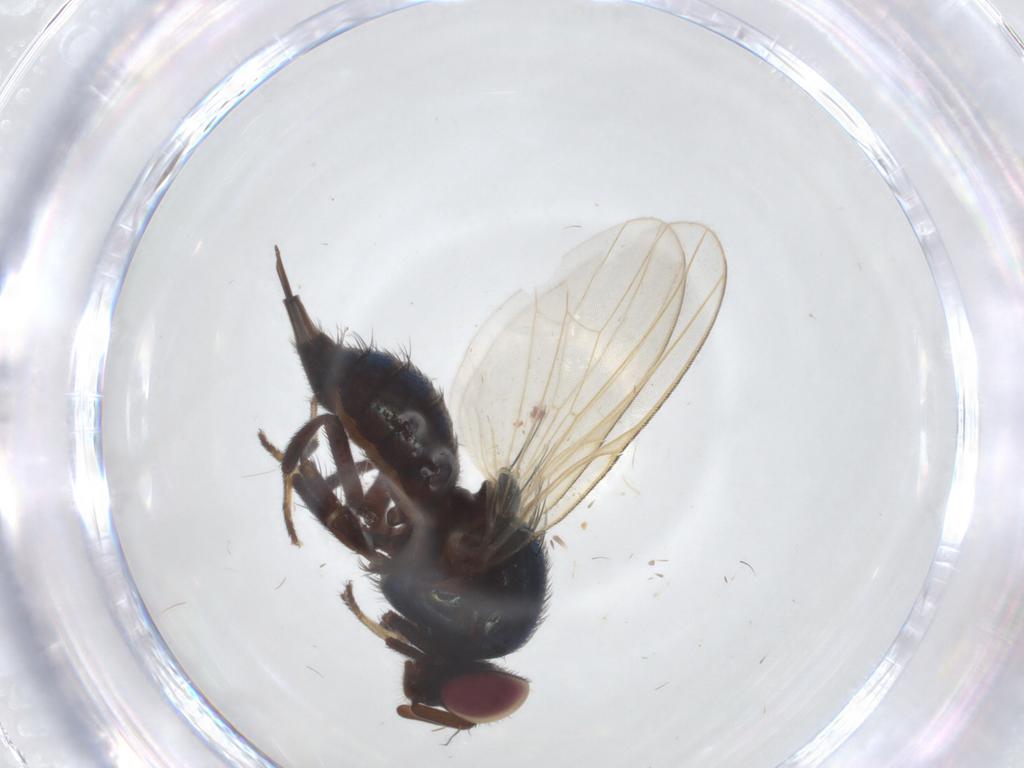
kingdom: Animalia
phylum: Arthropoda
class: Insecta
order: Diptera
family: Lonchaeidae
